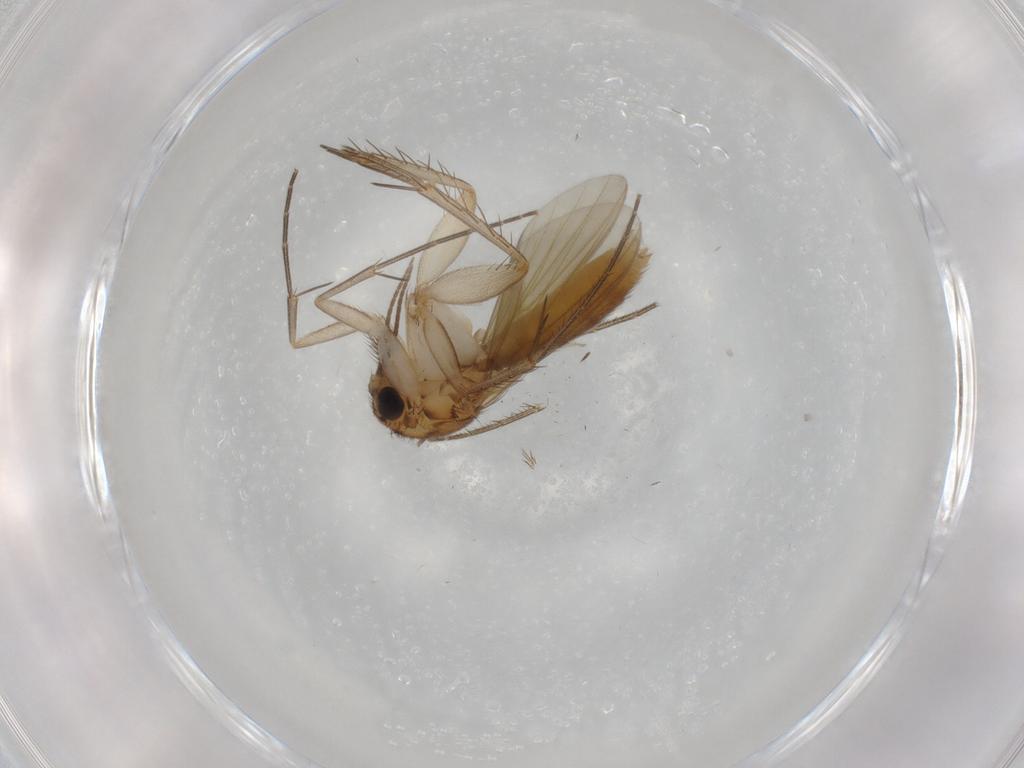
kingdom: Animalia
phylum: Arthropoda
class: Insecta
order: Diptera
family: Mycetophilidae
